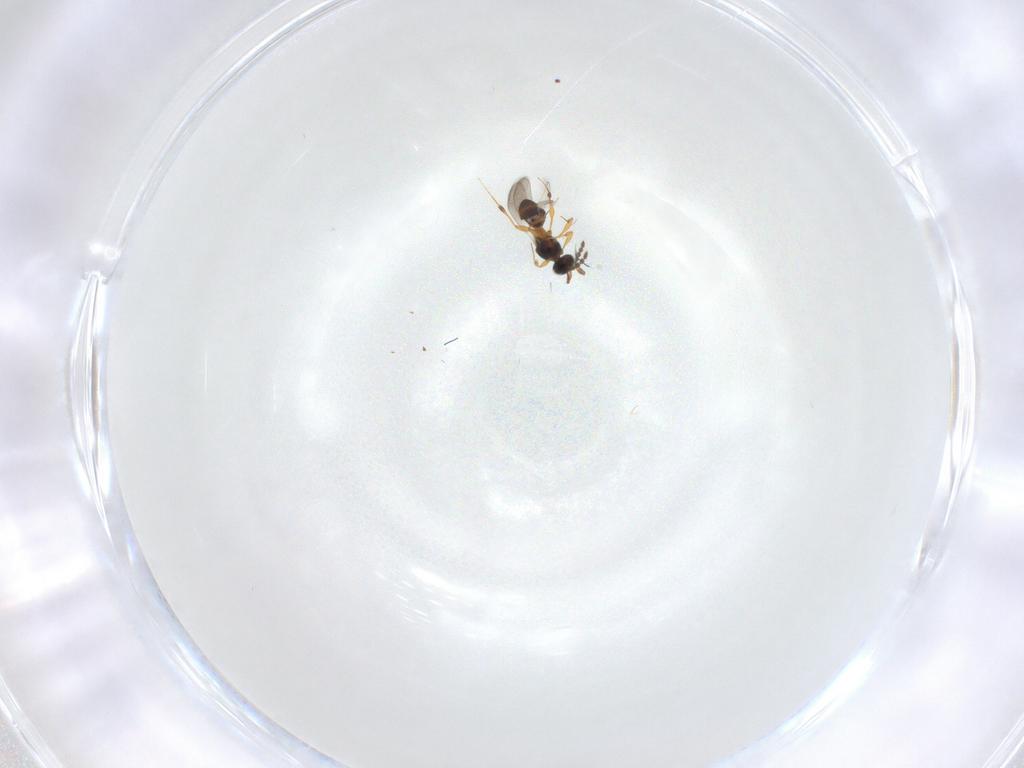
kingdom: Animalia
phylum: Arthropoda
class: Insecta
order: Hymenoptera
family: Platygastridae
